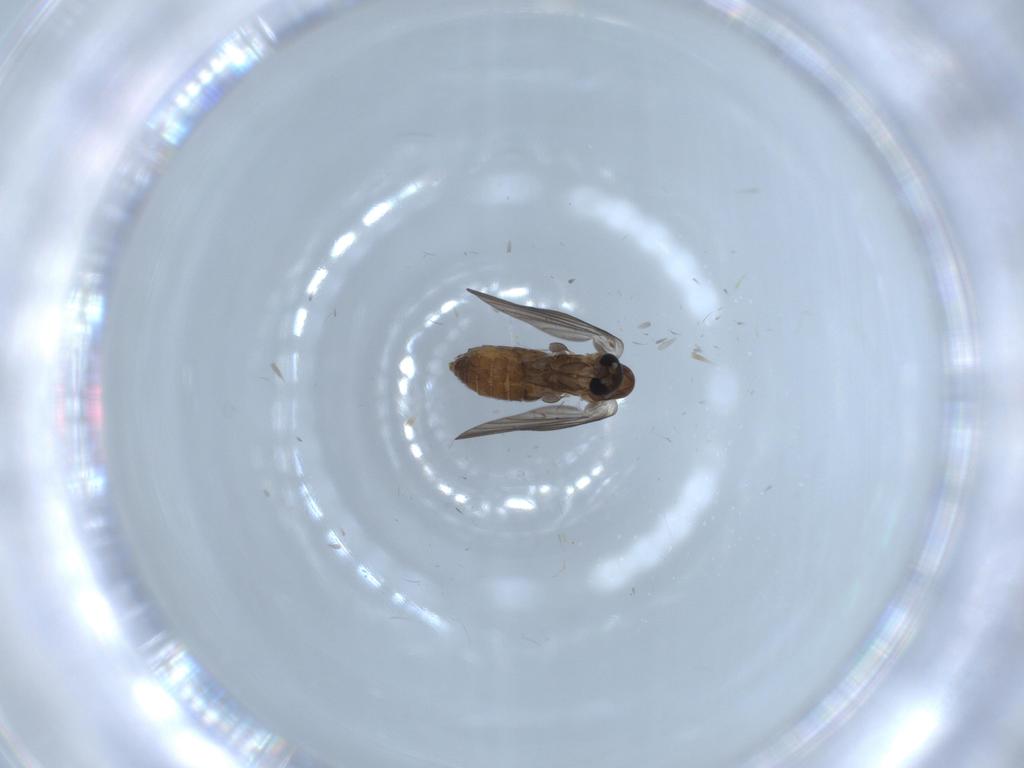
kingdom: Animalia
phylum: Arthropoda
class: Insecta
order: Diptera
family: Psychodidae
